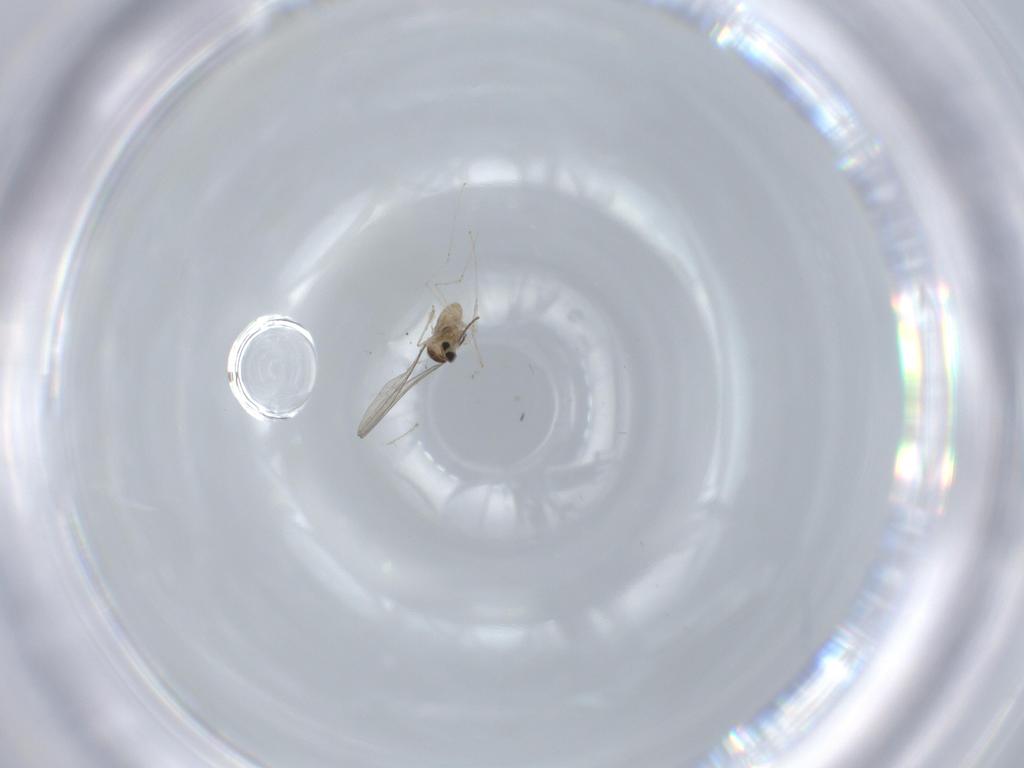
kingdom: Animalia
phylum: Arthropoda
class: Insecta
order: Diptera
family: Cecidomyiidae
